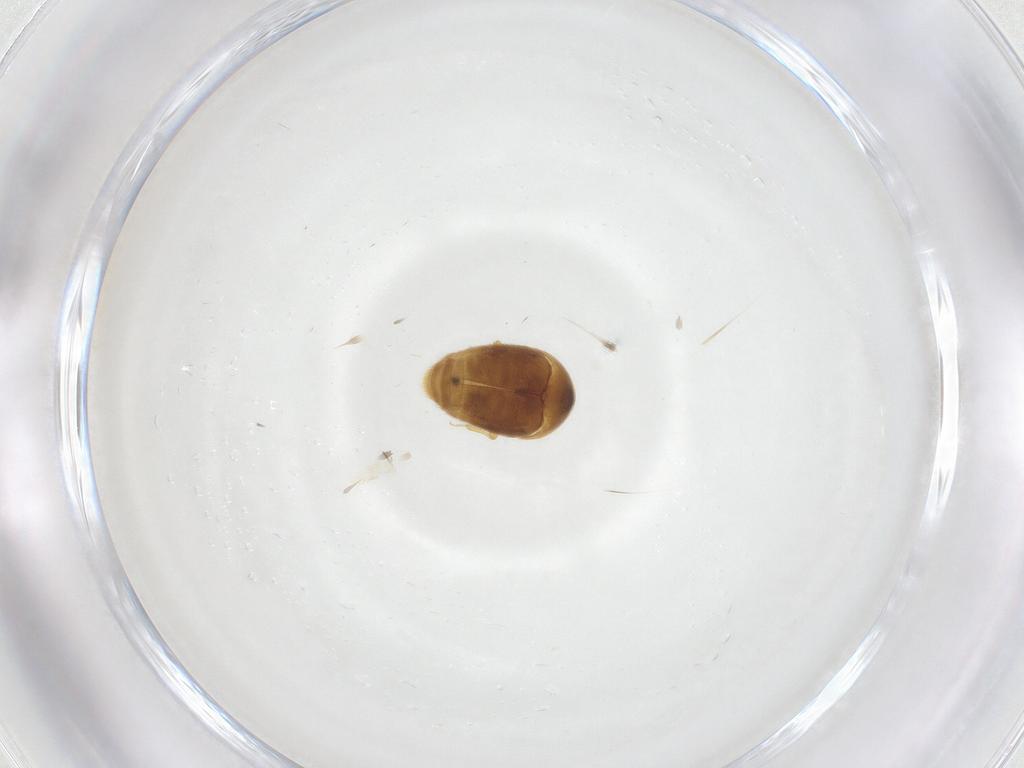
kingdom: Animalia
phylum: Arthropoda
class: Insecta
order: Coleoptera
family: Corylophidae
